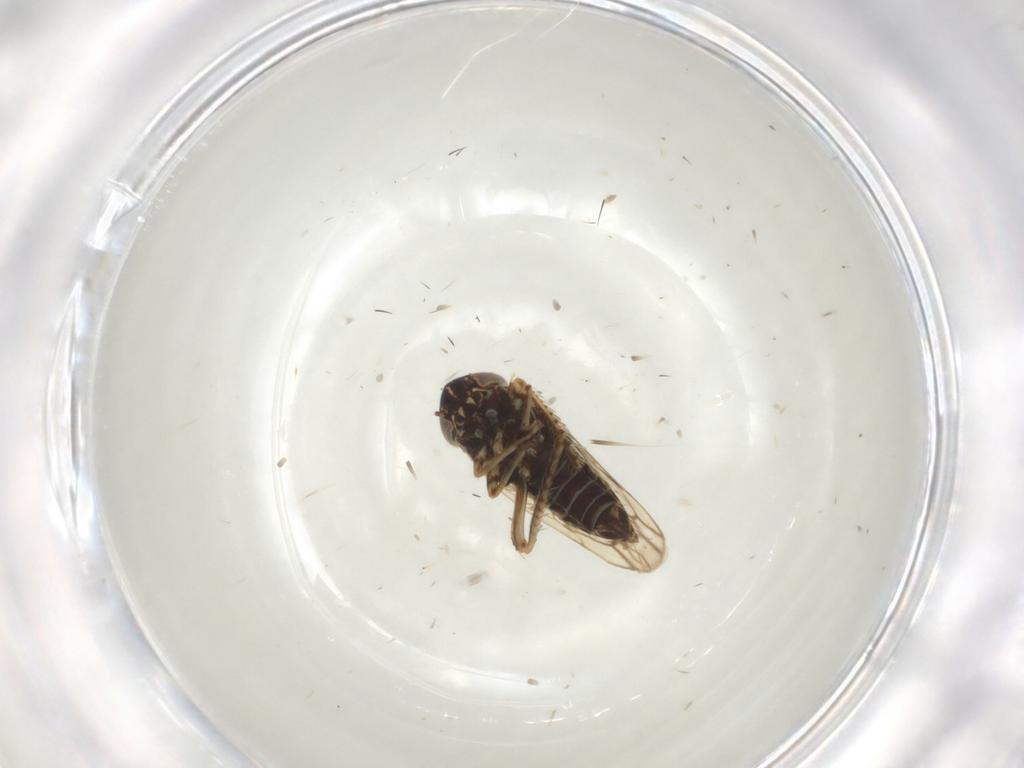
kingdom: Animalia
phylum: Arthropoda
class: Insecta
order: Hemiptera
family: Cicadellidae
